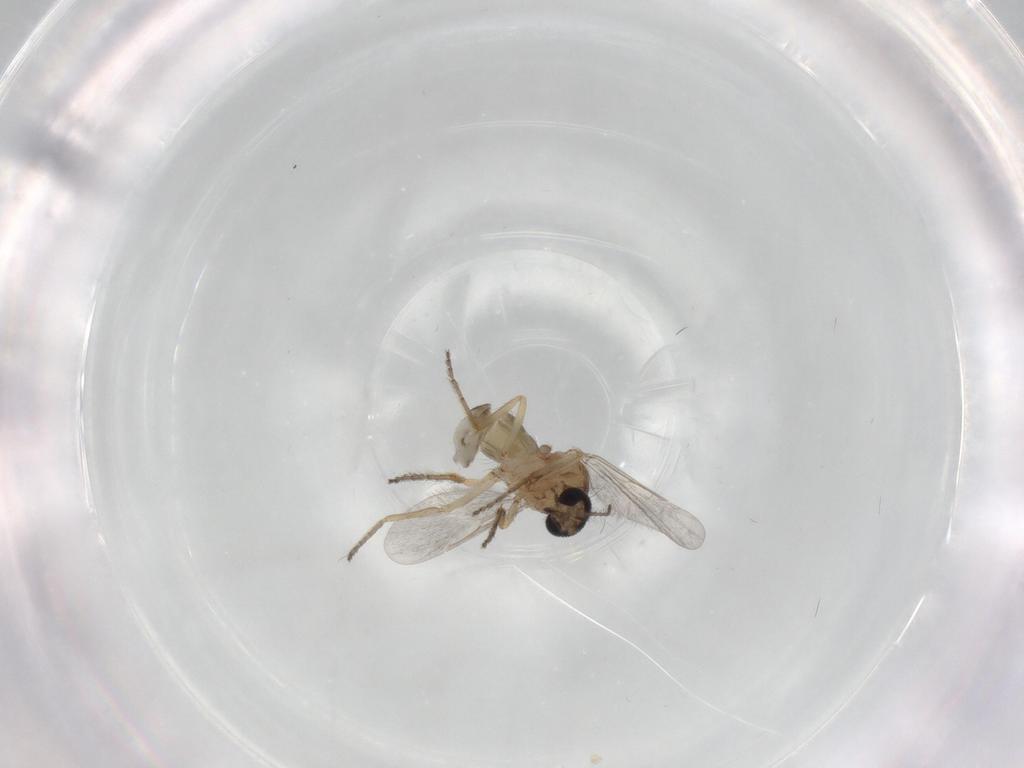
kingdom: Animalia
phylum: Arthropoda
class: Insecta
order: Diptera
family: Ceratopogonidae
